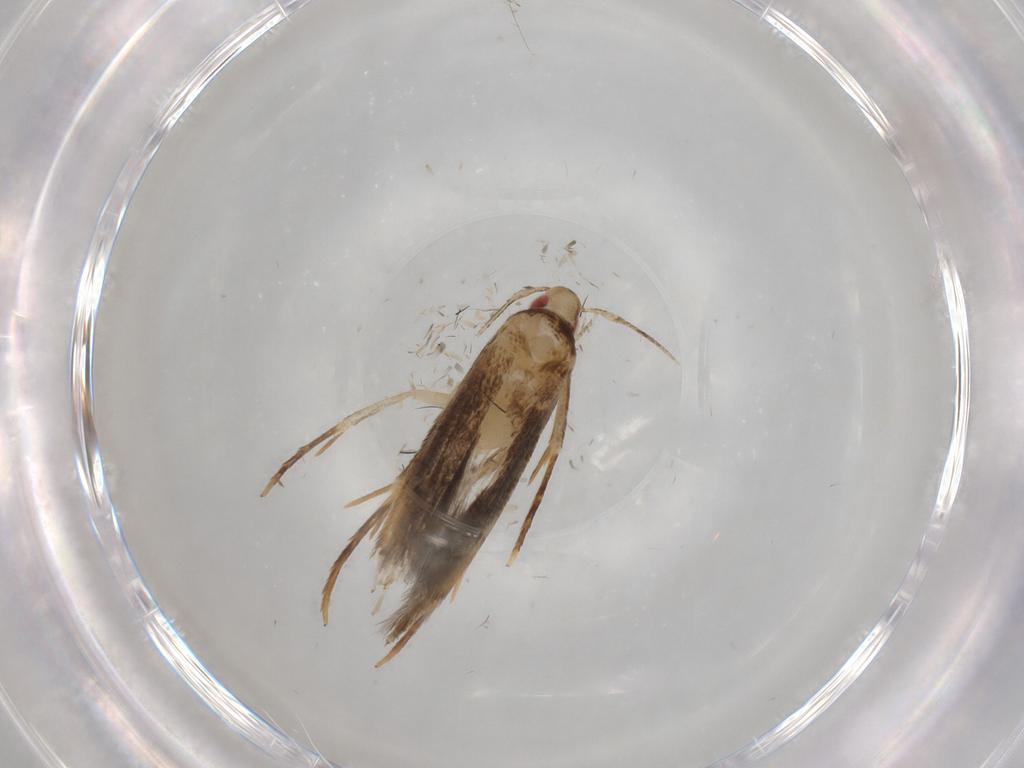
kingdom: Animalia
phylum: Arthropoda
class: Insecta
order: Lepidoptera
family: Gelechiidae
